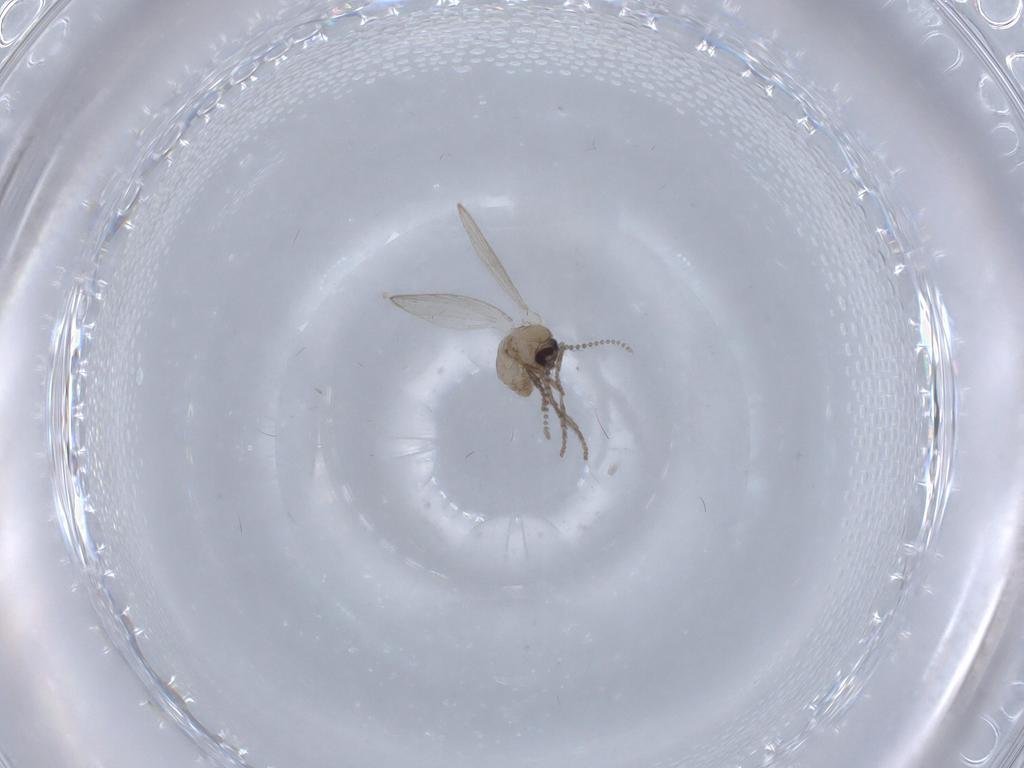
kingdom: Animalia
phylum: Arthropoda
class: Insecta
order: Diptera
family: Psychodidae
